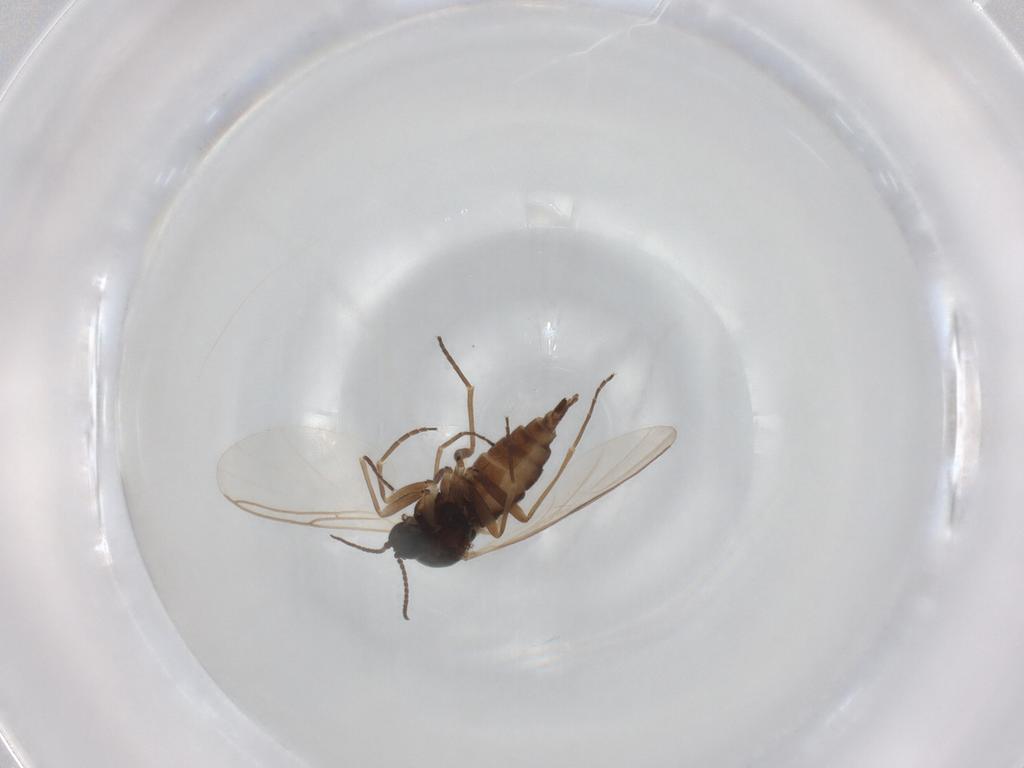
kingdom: Animalia
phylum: Arthropoda
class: Insecta
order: Diptera
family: Sciaridae
